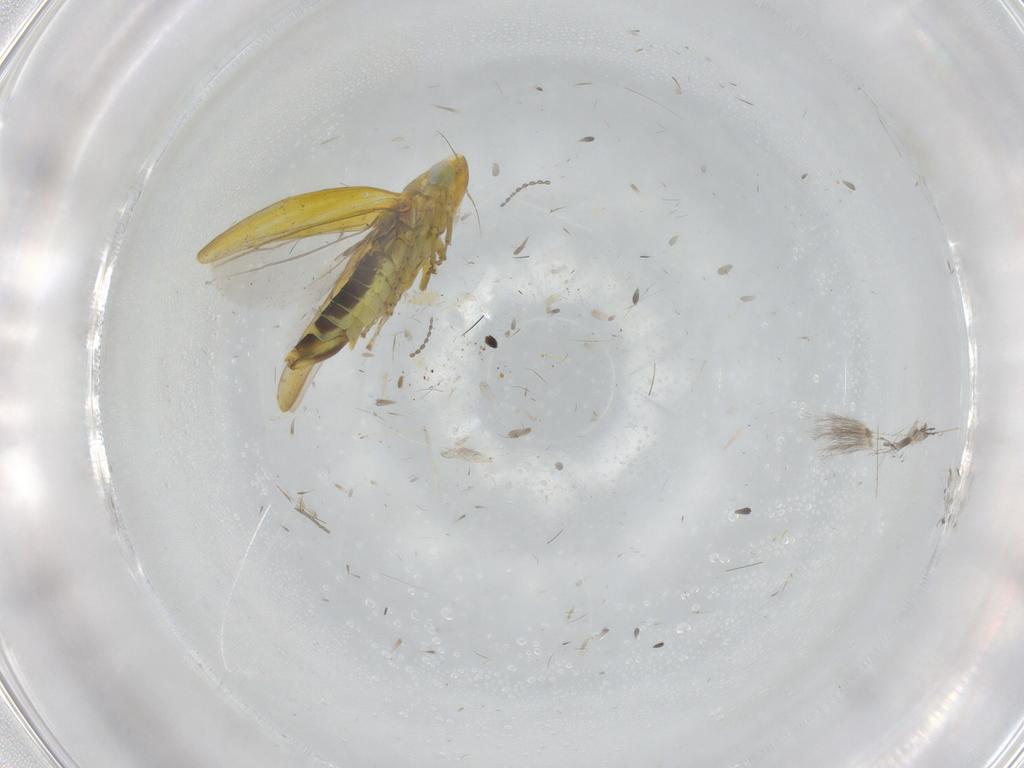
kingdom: Animalia
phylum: Arthropoda
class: Insecta
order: Hemiptera
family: Cicadellidae
